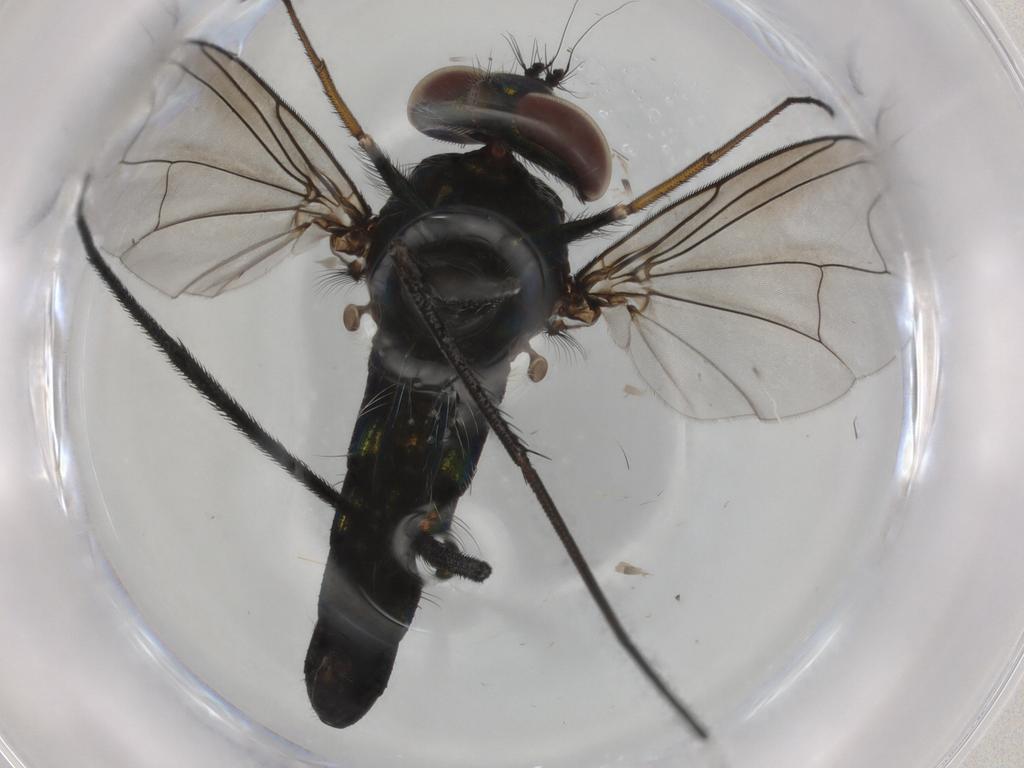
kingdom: Animalia
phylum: Arthropoda
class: Insecta
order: Diptera
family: Dolichopodidae
